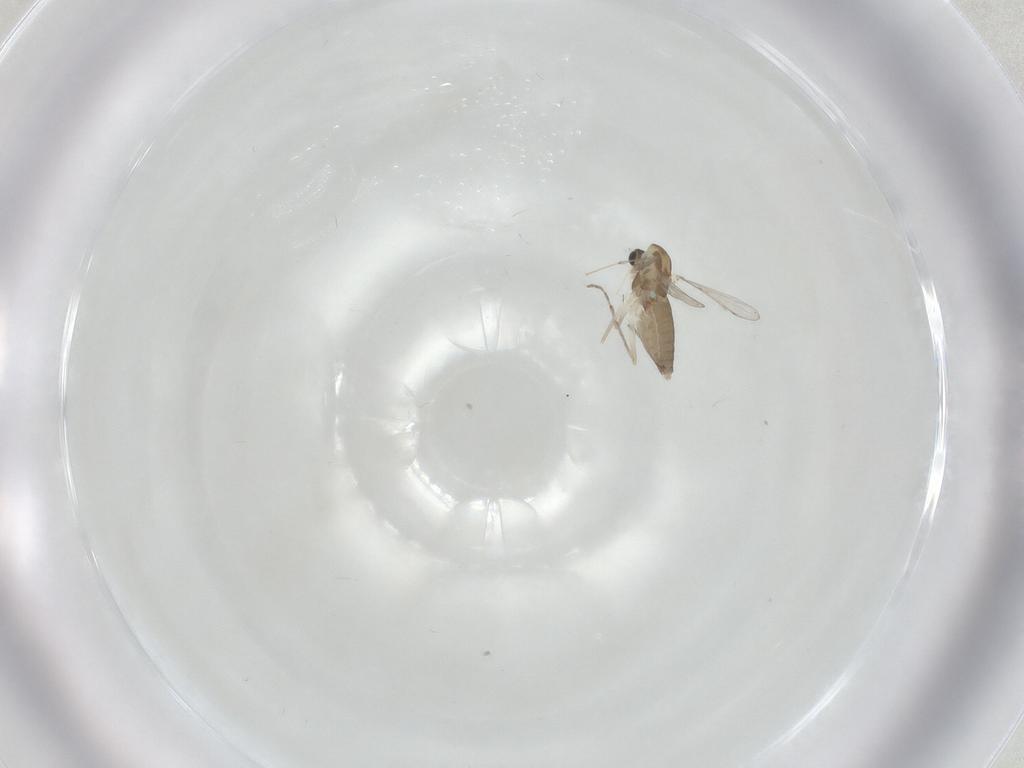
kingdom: Animalia
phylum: Arthropoda
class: Insecta
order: Diptera
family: Chironomidae
